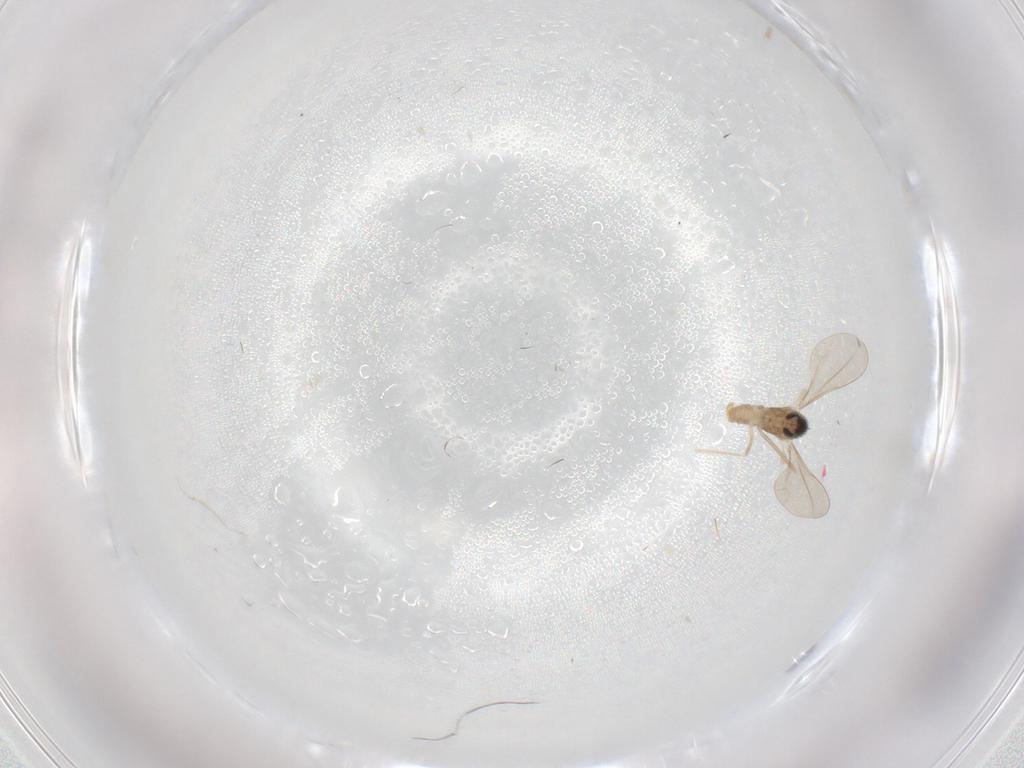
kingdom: Animalia
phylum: Arthropoda
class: Insecta
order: Diptera
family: Cecidomyiidae
